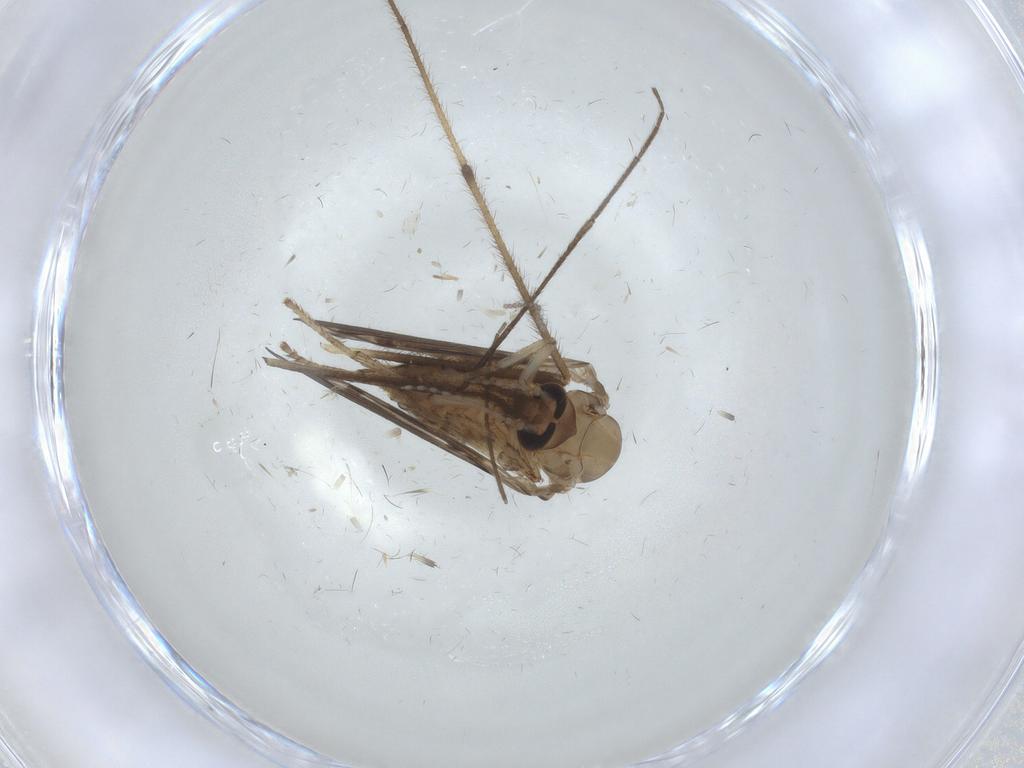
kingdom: Animalia
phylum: Arthropoda
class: Insecta
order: Diptera
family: Psychodidae
